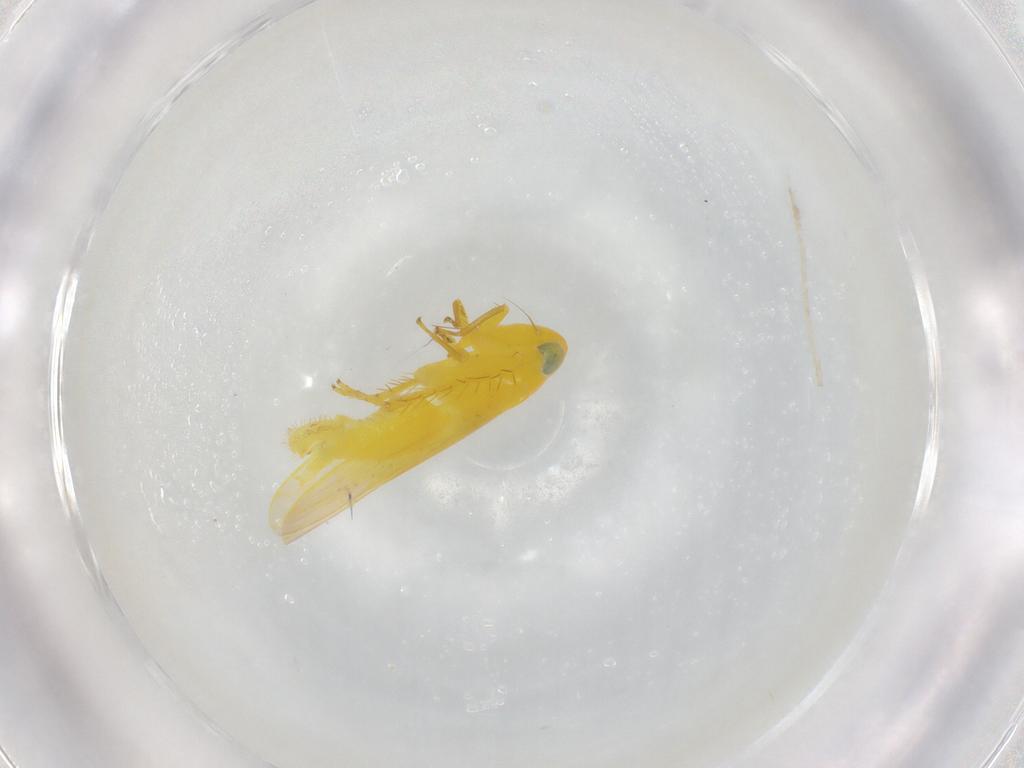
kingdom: Animalia
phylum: Arthropoda
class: Insecta
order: Hemiptera
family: Cicadellidae
